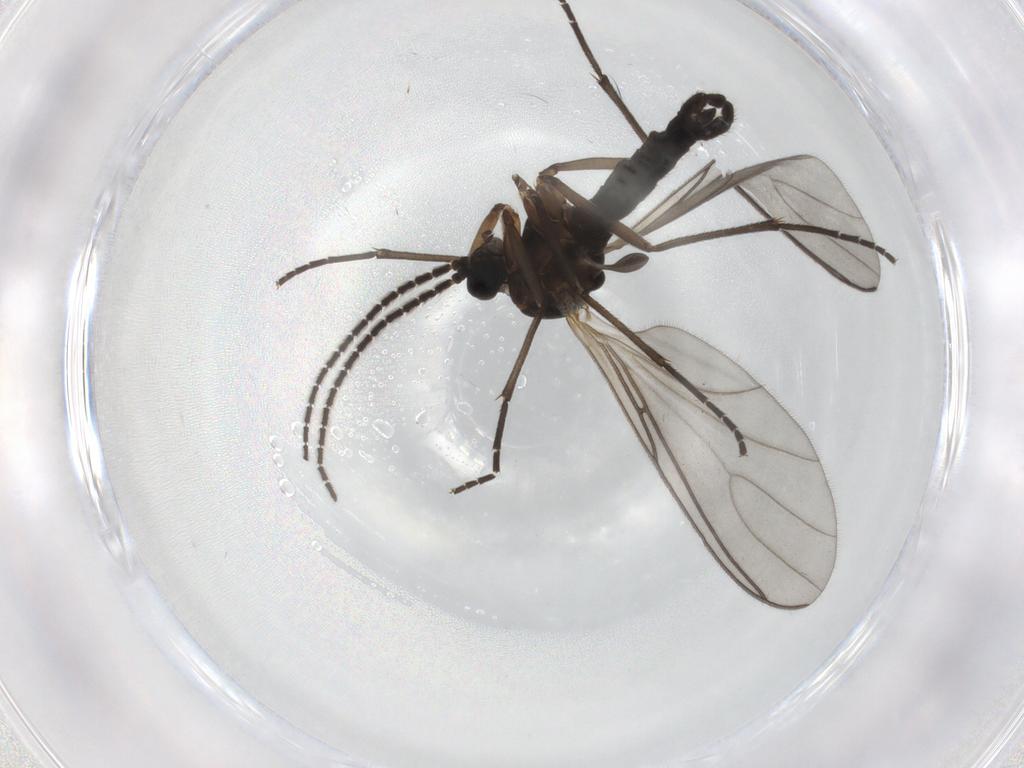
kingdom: Animalia
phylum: Arthropoda
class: Insecta
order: Diptera
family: Sciaridae
